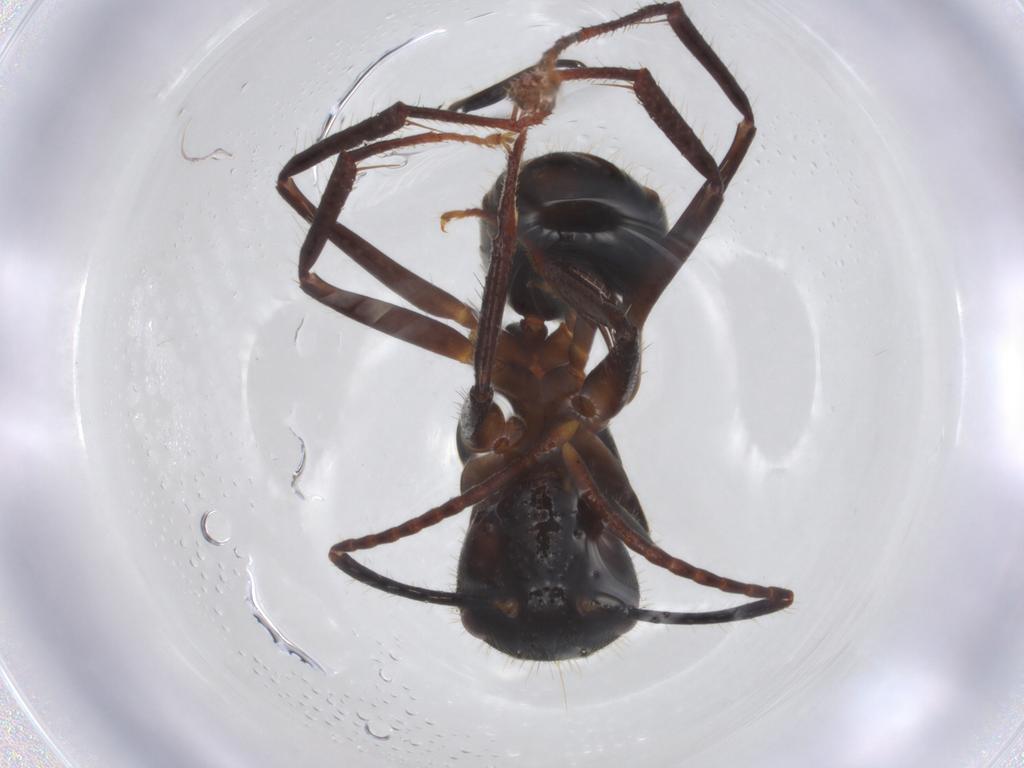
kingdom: Animalia
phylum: Arthropoda
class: Insecta
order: Hymenoptera
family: Formicidae
